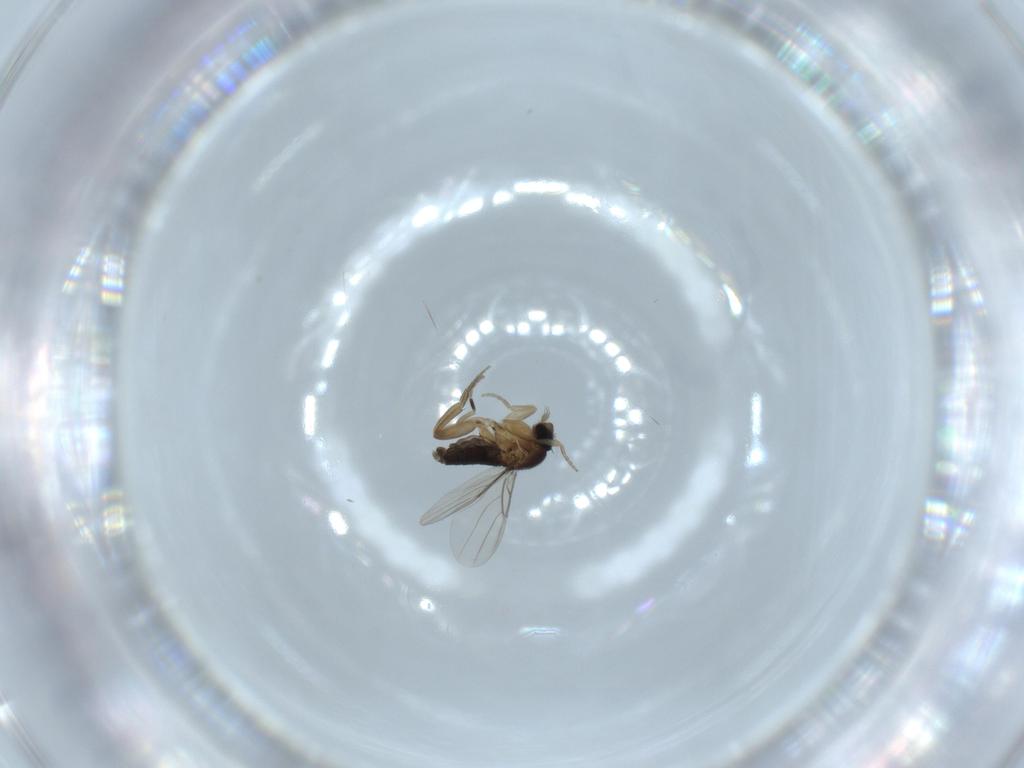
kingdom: Animalia
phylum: Arthropoda
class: Insecta
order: Diptera
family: Phoridae
